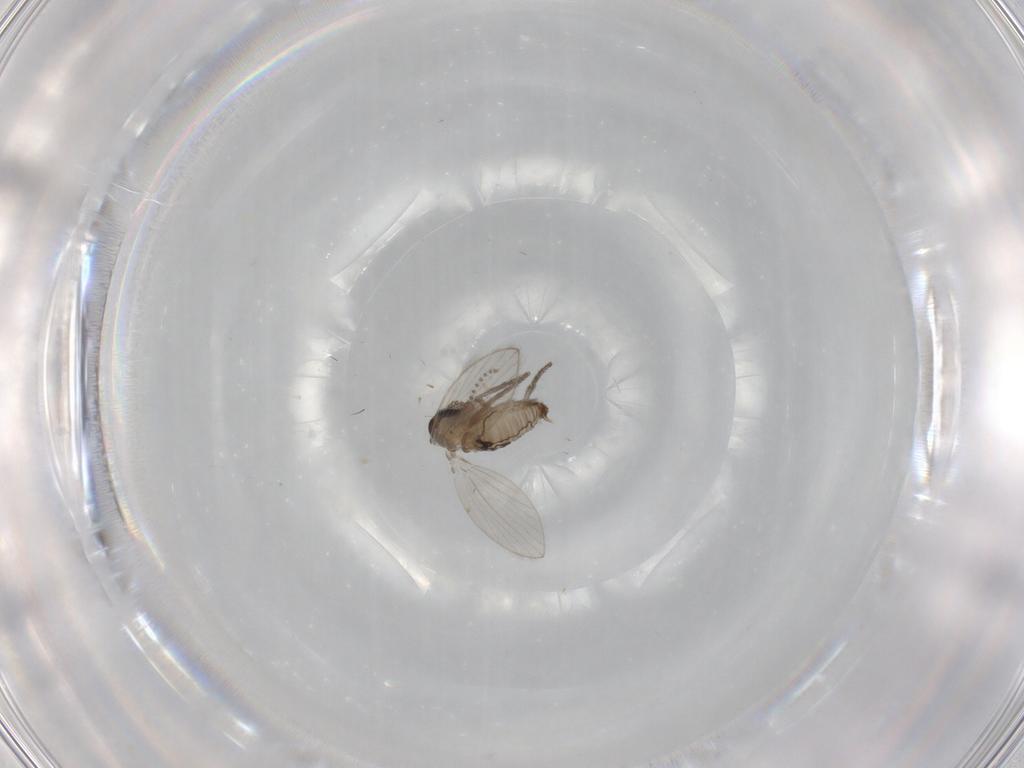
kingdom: Animalia
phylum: Arthropoda
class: Insecta
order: Diptera
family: Psychodidae
